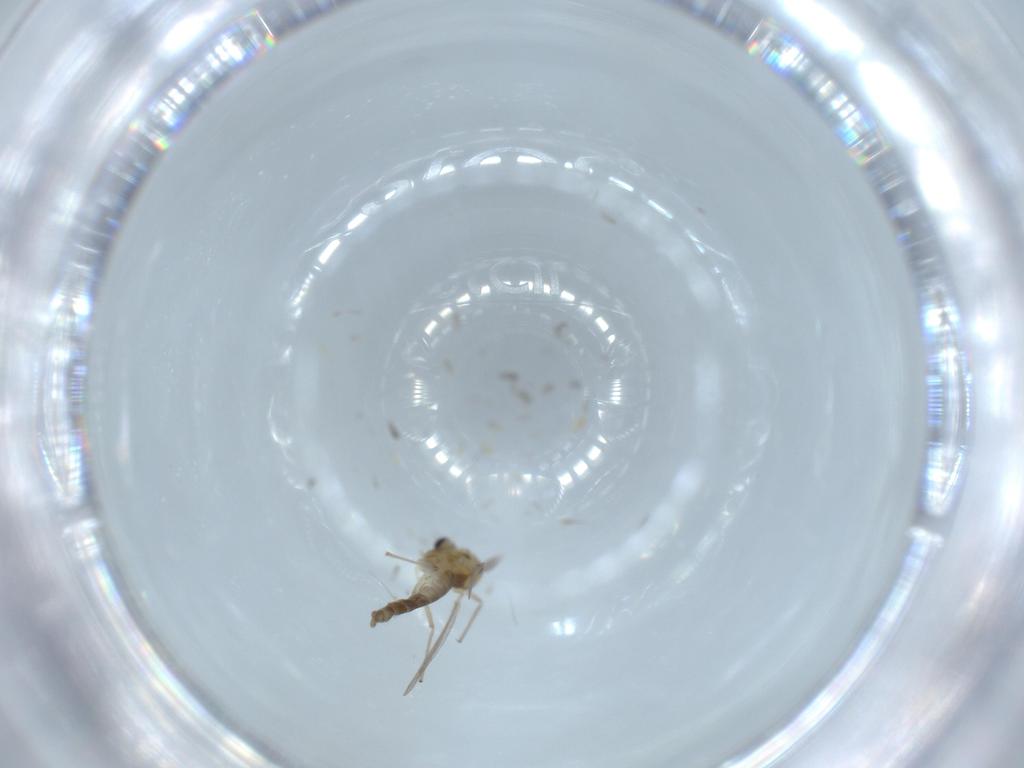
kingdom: Animalia
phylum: Arthropoda
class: Insecta
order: Diptera
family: Chironomidae
